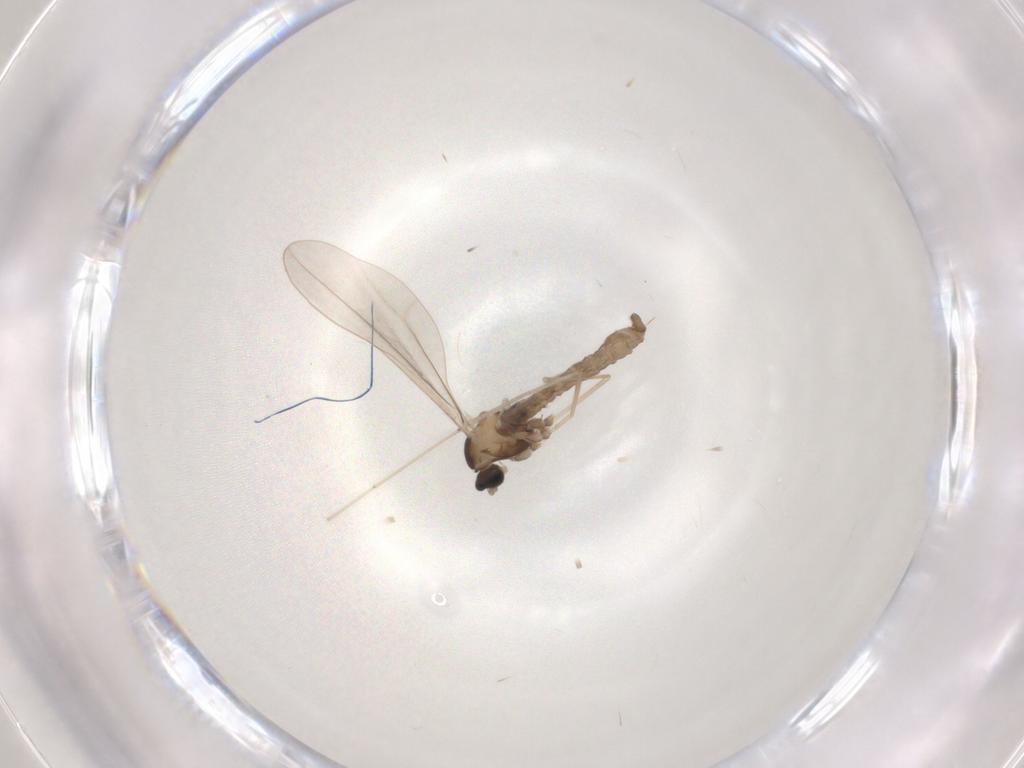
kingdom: Animalia
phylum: Arthropoda
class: Insecta
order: Diptera
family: Cecidomyiidae
